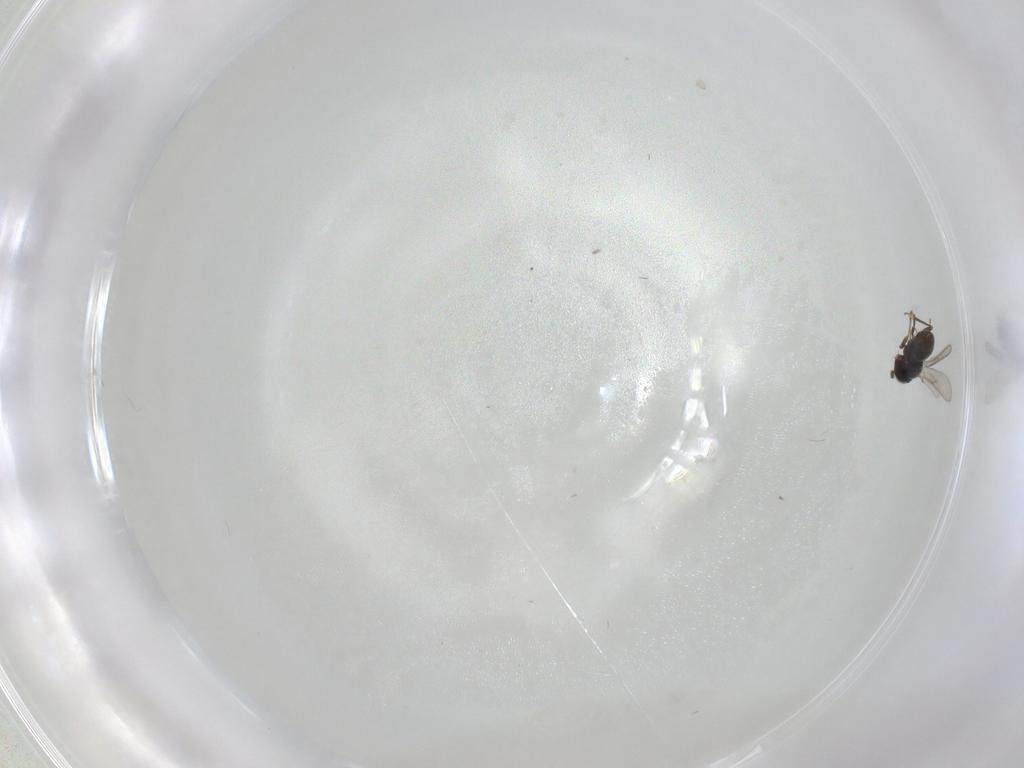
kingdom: Animalia
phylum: Arthropoda
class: Insecta
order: Hymenoptera
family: Scelionidae
